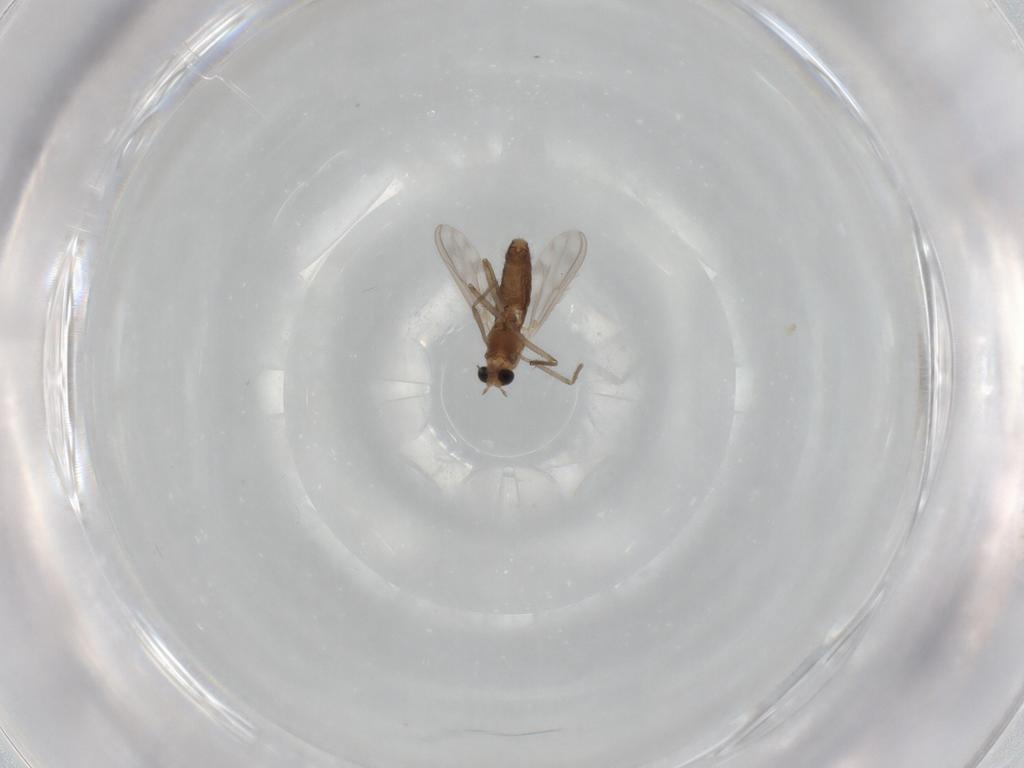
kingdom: Animalia
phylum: Arthropoda
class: Insecta
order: Diptera
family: Chironomidae
